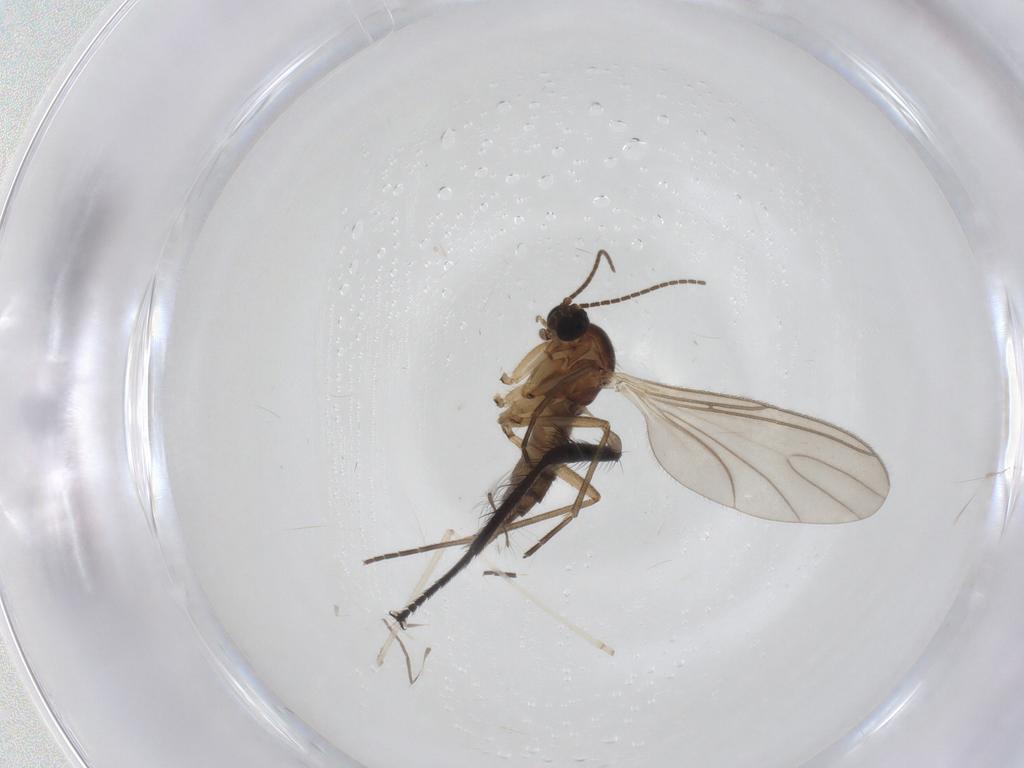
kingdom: Animalia
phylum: Arthropoda
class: Insecta
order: Diptera
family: Sciaridae
